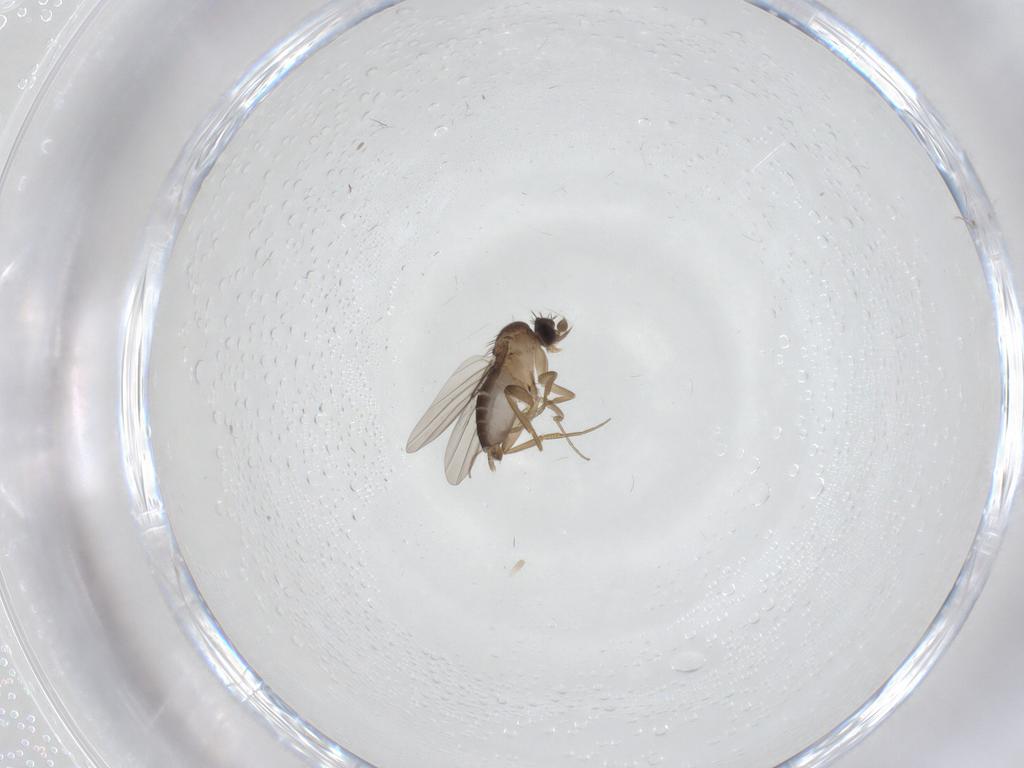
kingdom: Animalia
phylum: Arthropoda
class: Insecta
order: Diptera
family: Phoridae
